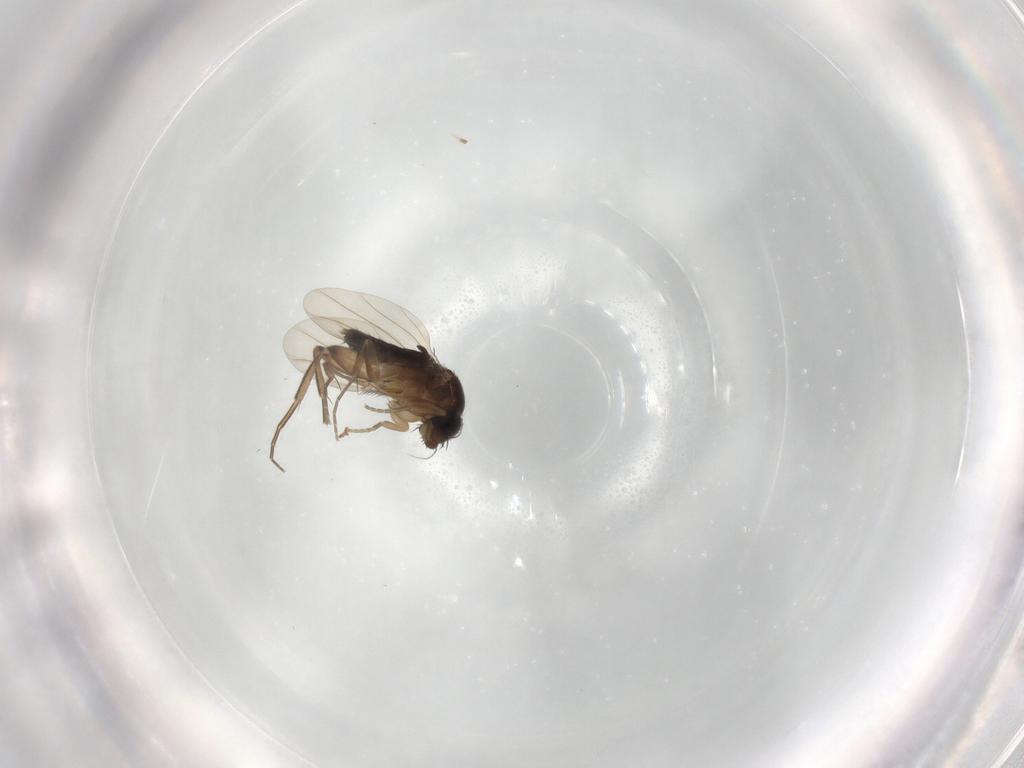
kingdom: Animalia
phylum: Arthropoda
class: Insecta
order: Diptera
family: Phoridae
